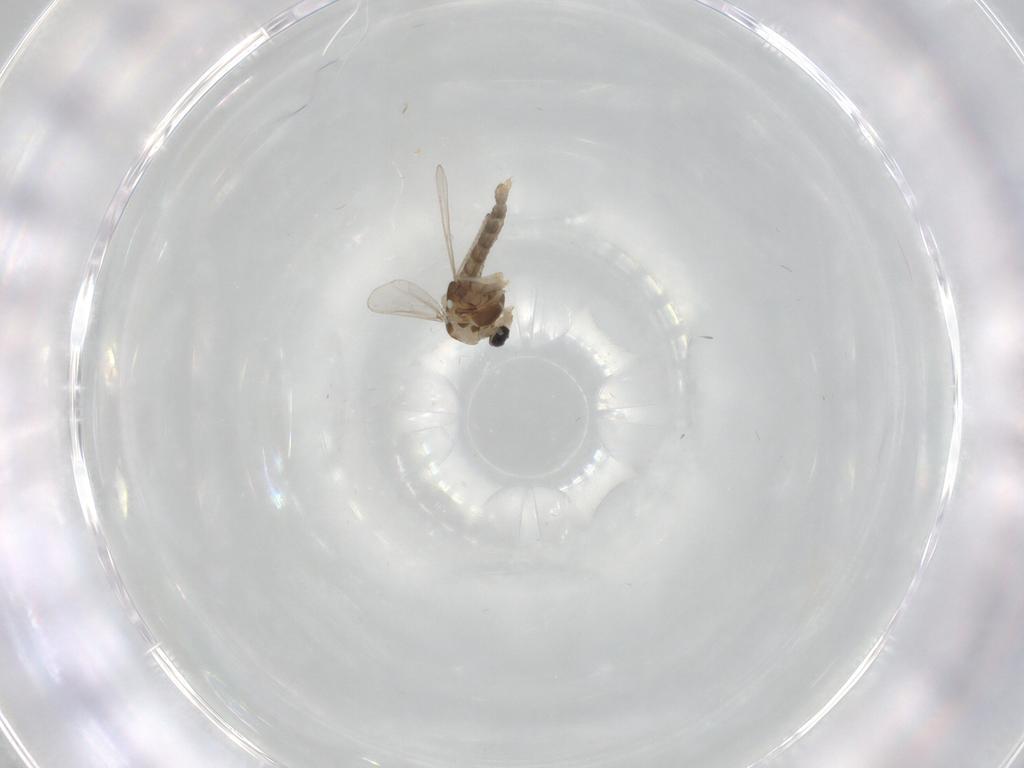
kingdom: Animalia
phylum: Arthropoda
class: Insecta
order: Diptera
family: Chironomidae
